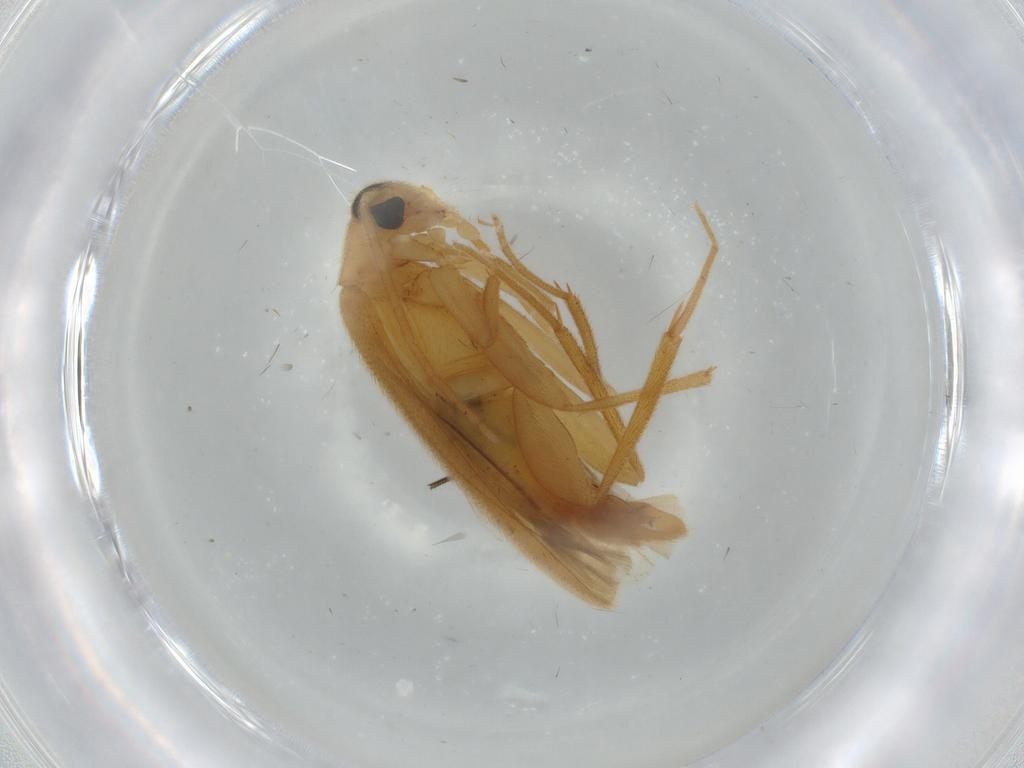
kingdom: Animalia
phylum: Arthropoda
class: Insecta
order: Coleoptera
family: Scraptiidae
